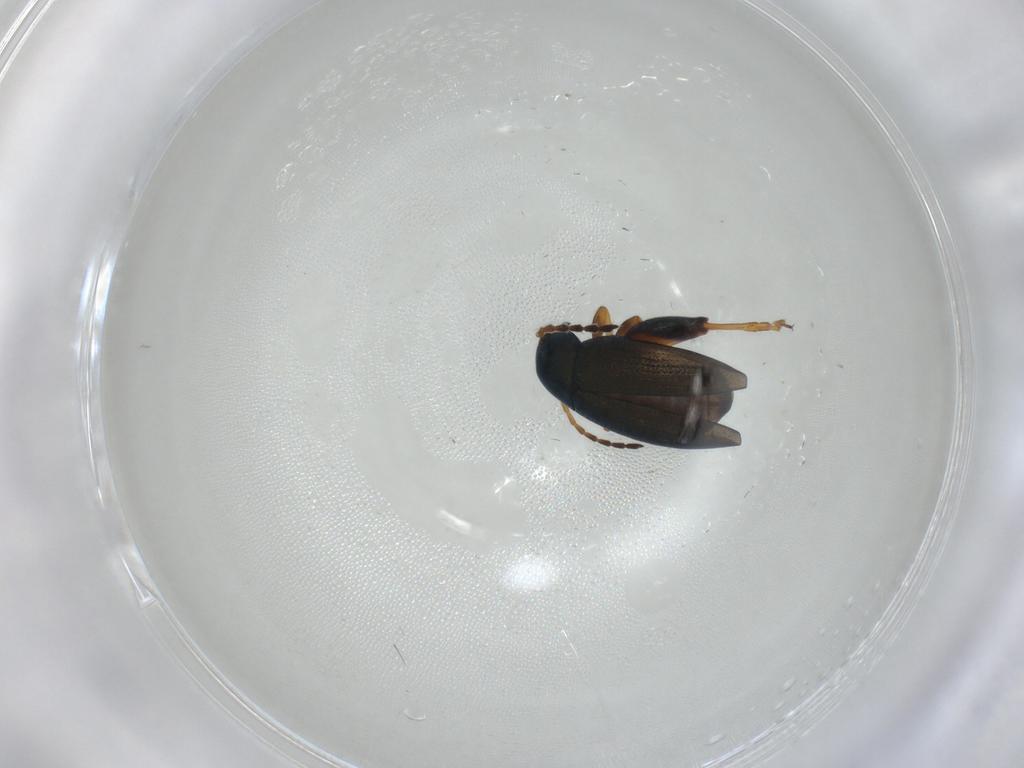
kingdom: Animalia
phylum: Arthropoda
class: Insecta
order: Coleoptera
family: Chrysomelidae
